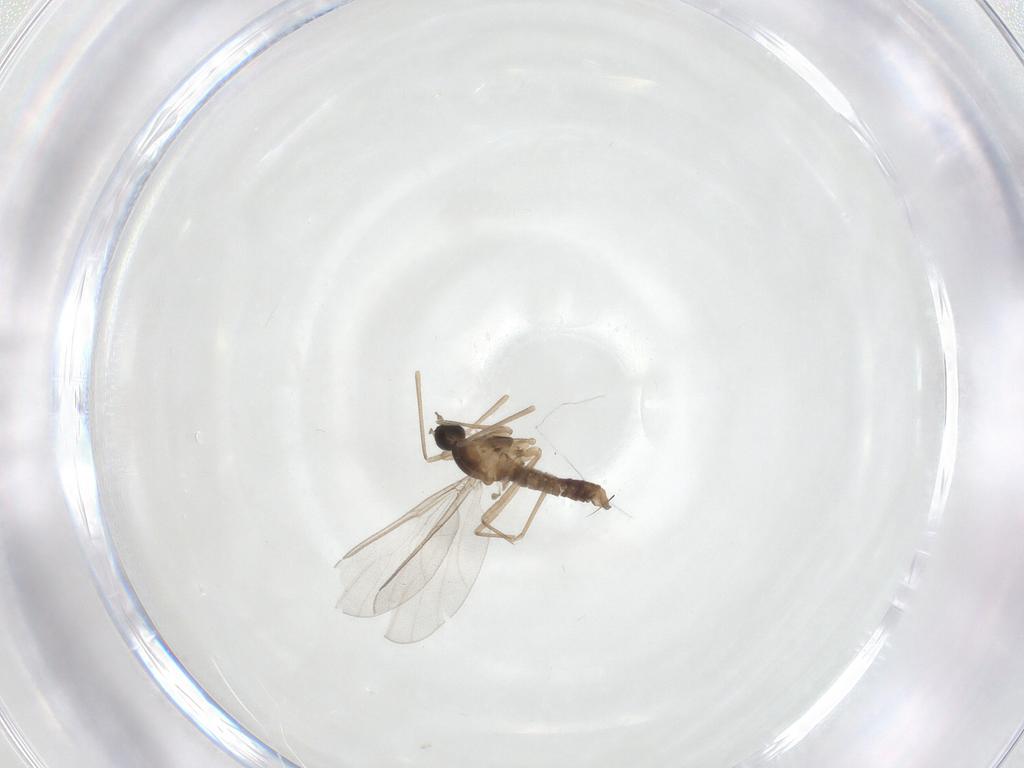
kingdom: Animalia
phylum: Arthropoda
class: Insecta
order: Diptera
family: Cecidomyiidae
